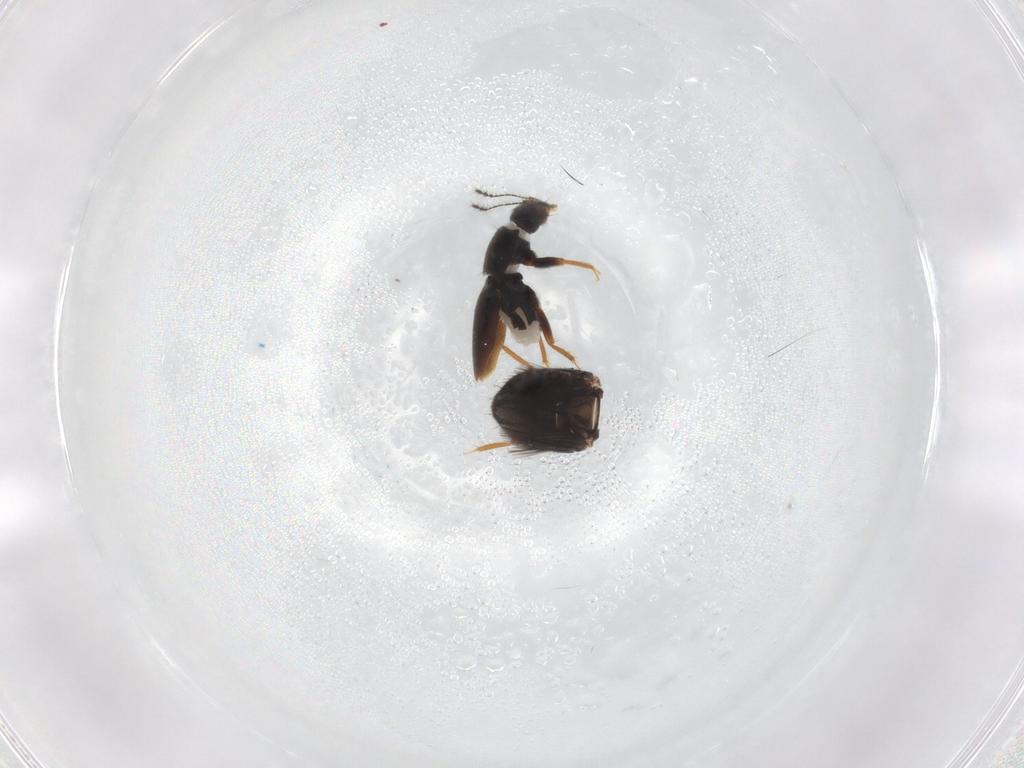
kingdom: Animalia
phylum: Arthropoda
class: Insecta
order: Coleoptera
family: Ptiliidae
